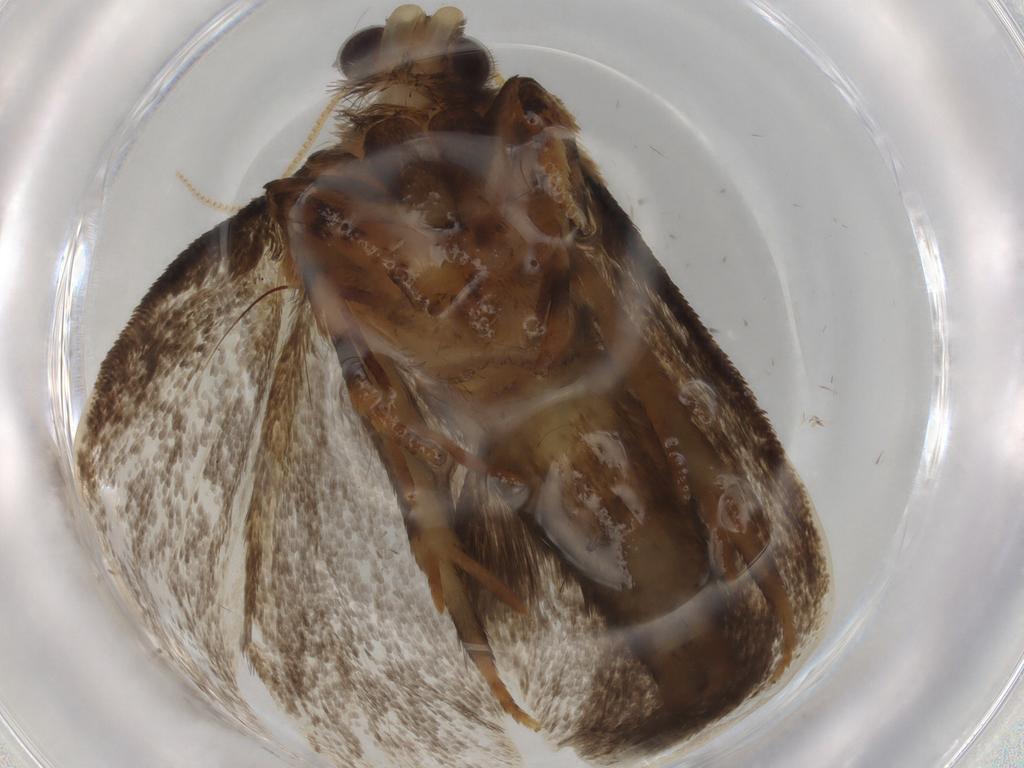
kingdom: Animalia
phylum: Arthropoda
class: Insecta
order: Lepidoptera
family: Tineidae
